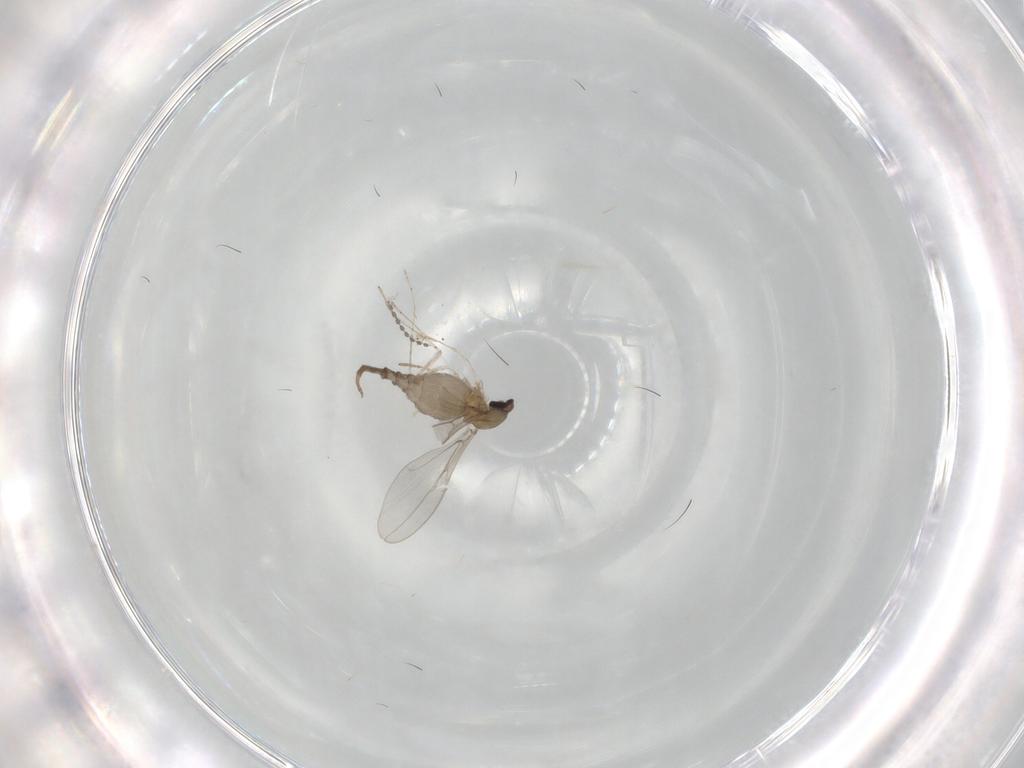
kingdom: Animalia
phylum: Arthropoda
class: Insecta
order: Diptera
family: Cecidomyiidae
